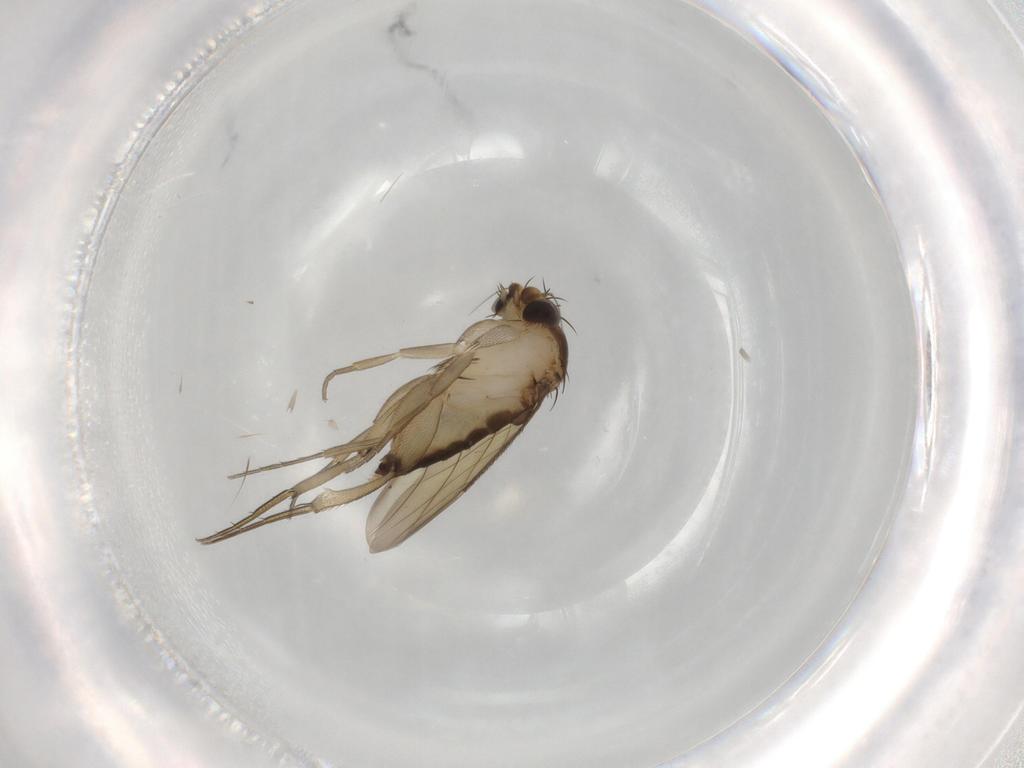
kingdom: Animalia
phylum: Arthropoda
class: Insecta
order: Diptera
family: Phoridae
